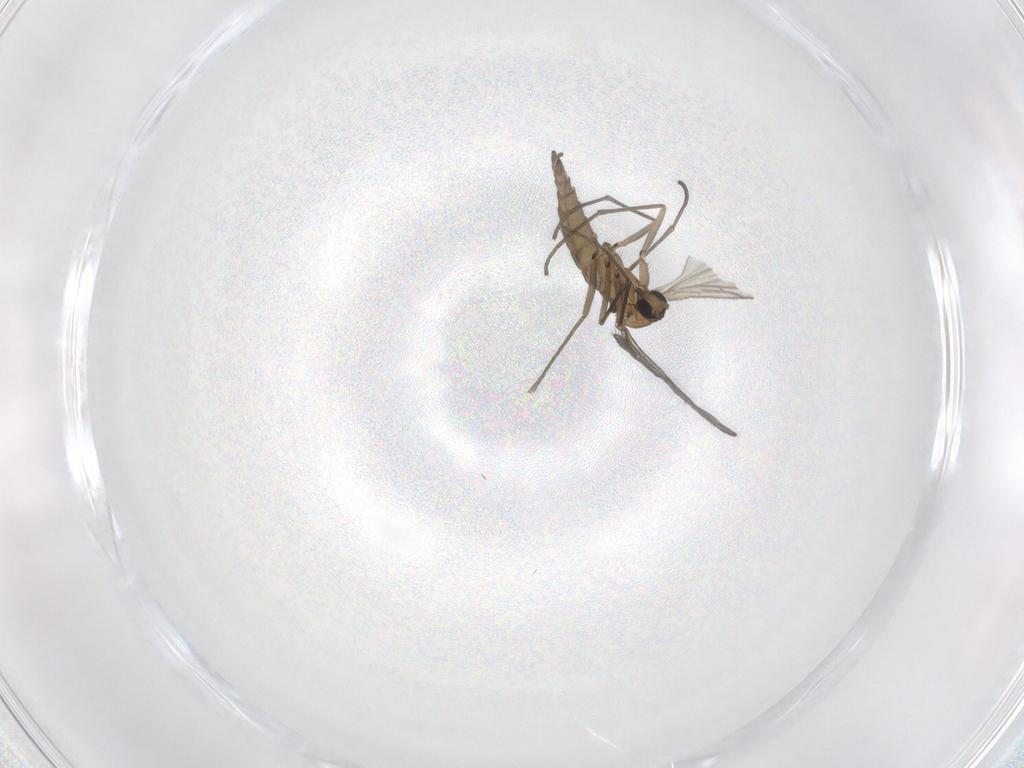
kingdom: Animalia
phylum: Arthropoda
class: Insecta
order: Diptera
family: Sciaridae
